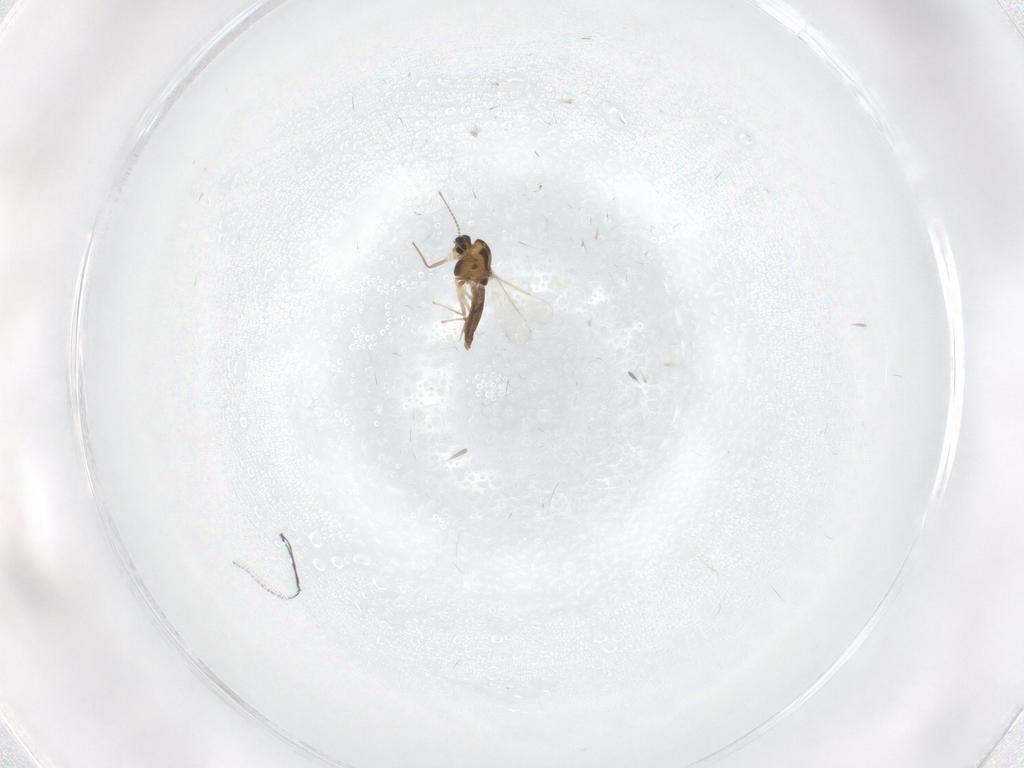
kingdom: Animalia
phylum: Arthropoda
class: Insecta
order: Diptera
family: Chironomidae
